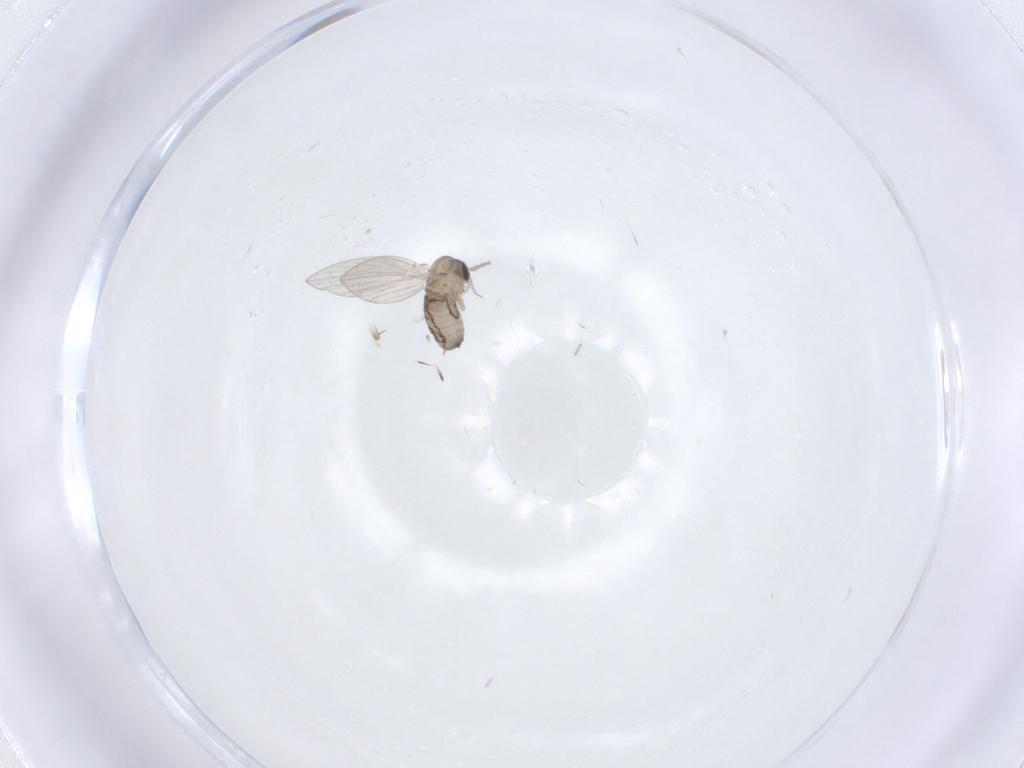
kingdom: Animalia
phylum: Arthropoda
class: Insecta
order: Diptera
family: Psychodidae
